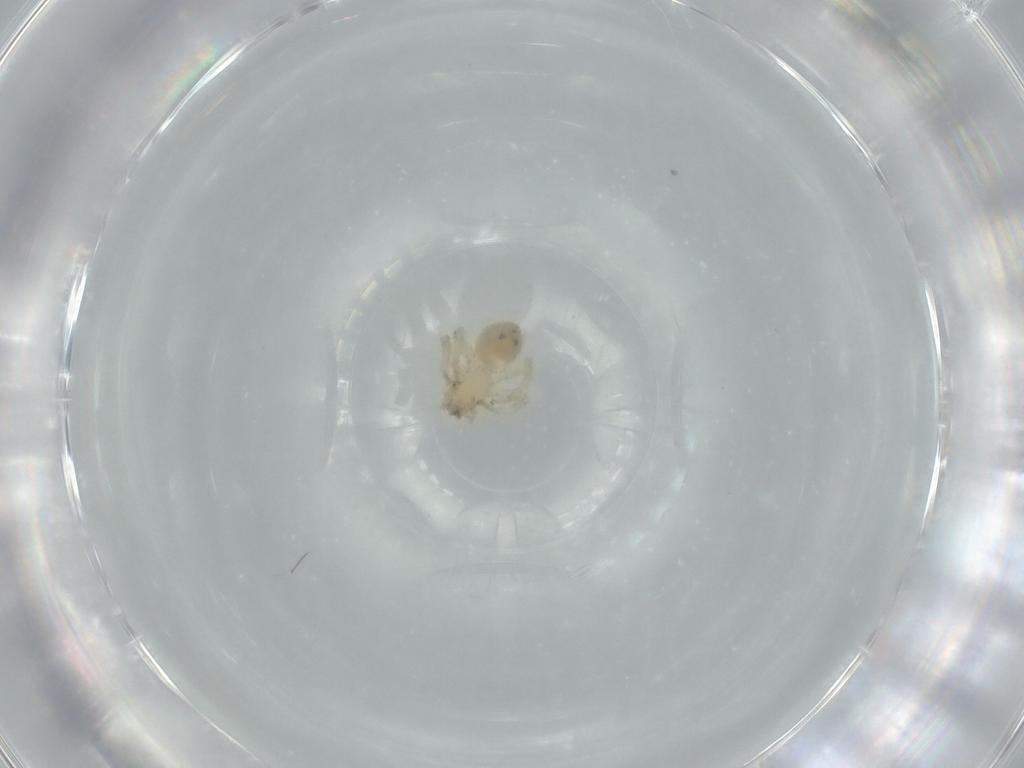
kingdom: Animalia
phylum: Arthropoda
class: Arachnida
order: Araneae
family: Oonopidae
